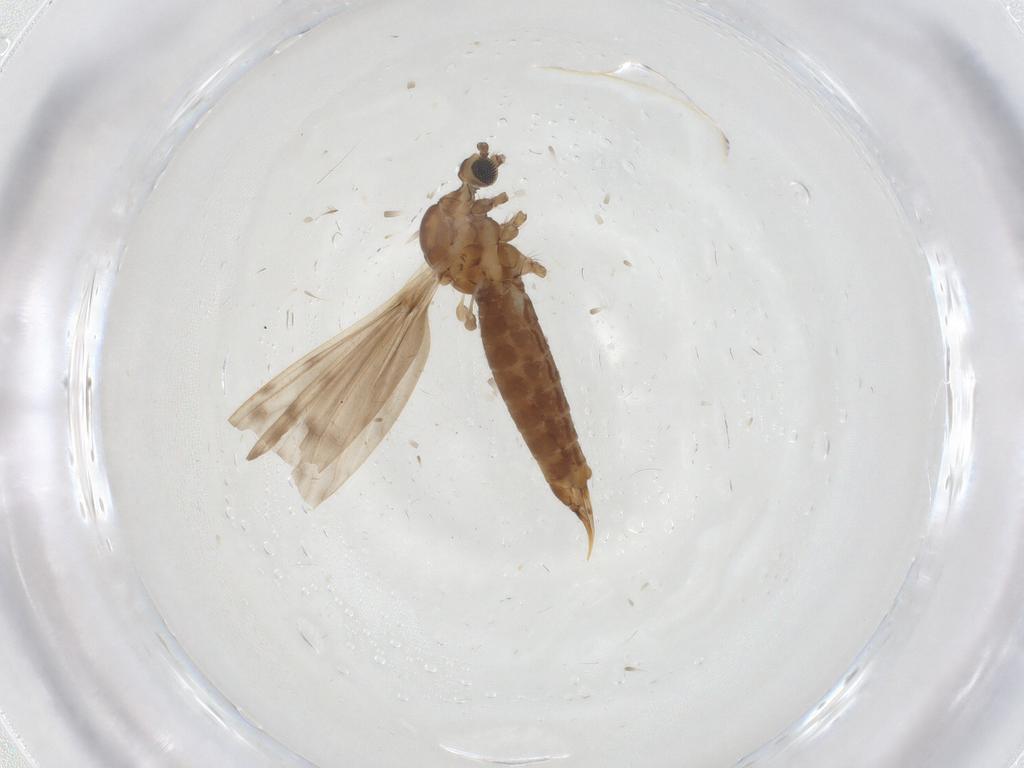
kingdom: Animalia
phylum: Arthropoda
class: Insecta
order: Diptera
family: Limoniidae
